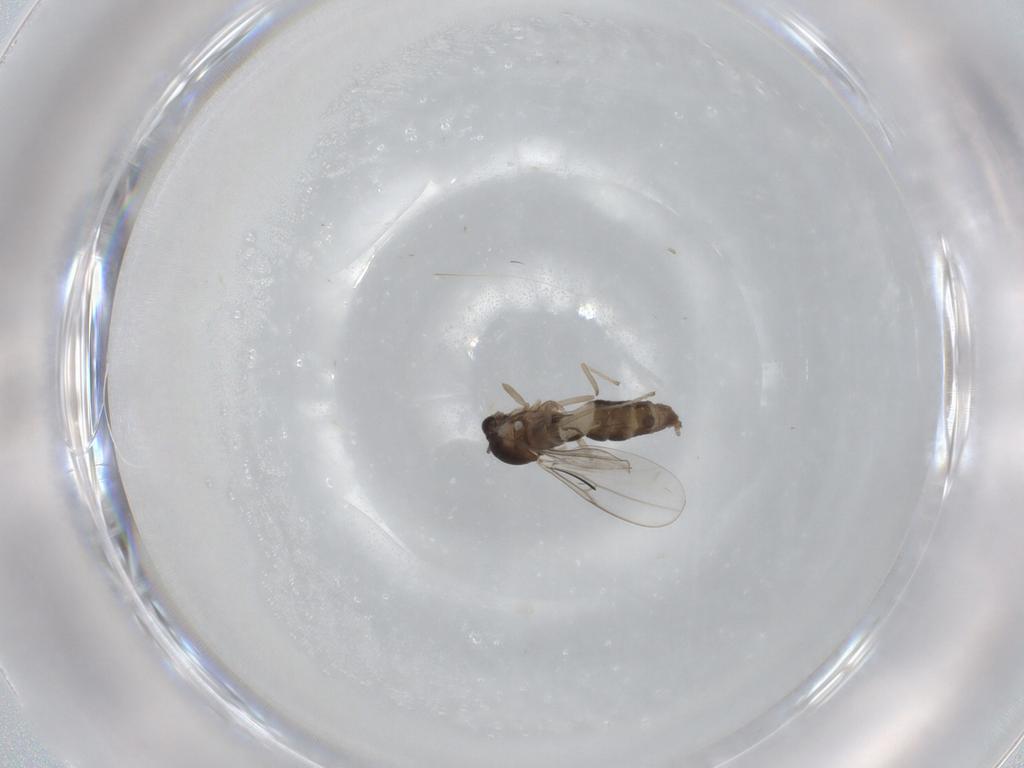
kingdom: Animalia
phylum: Arthropoda
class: Insecta
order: Diptera
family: Cecidomyiidae
